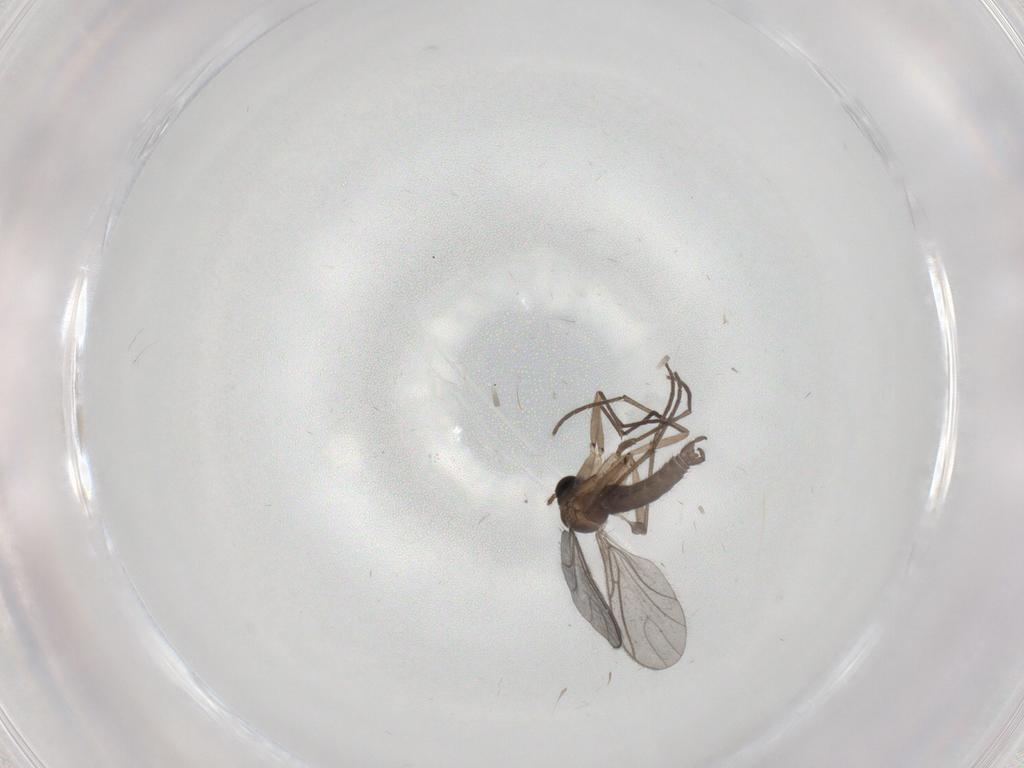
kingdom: Animalia
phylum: Arthropoda
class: Insecta
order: Diptera
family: Sciaridae
